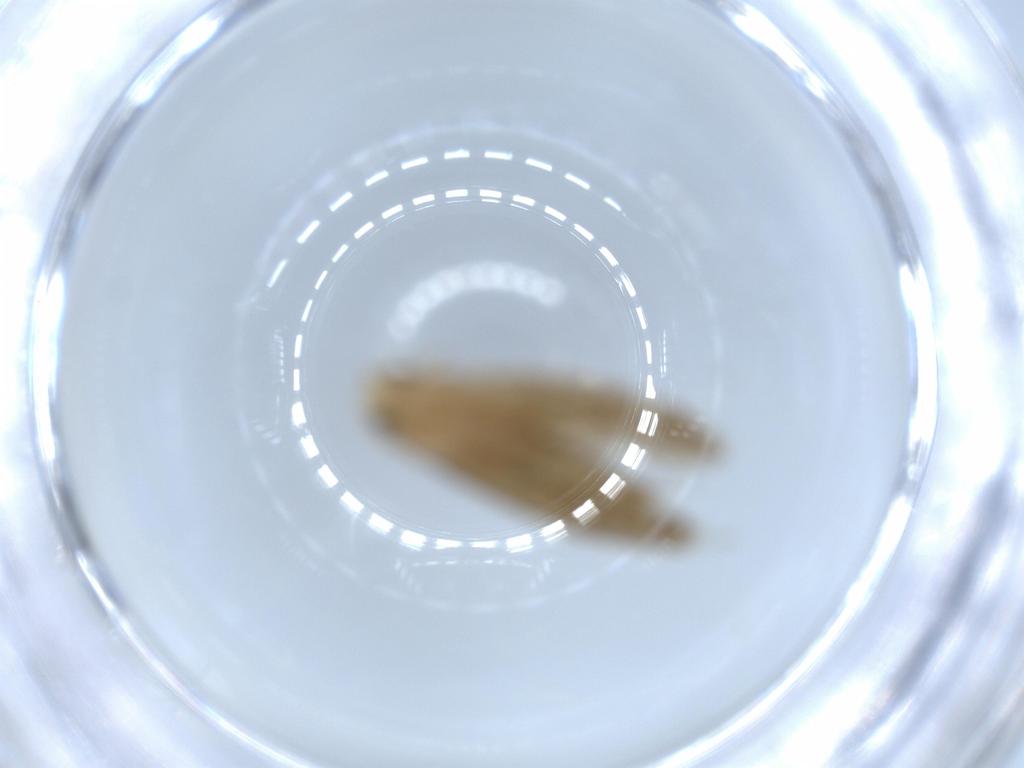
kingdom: Animalia
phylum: Arthropoda
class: Insecta
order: Lepidoptera
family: Tineidae
